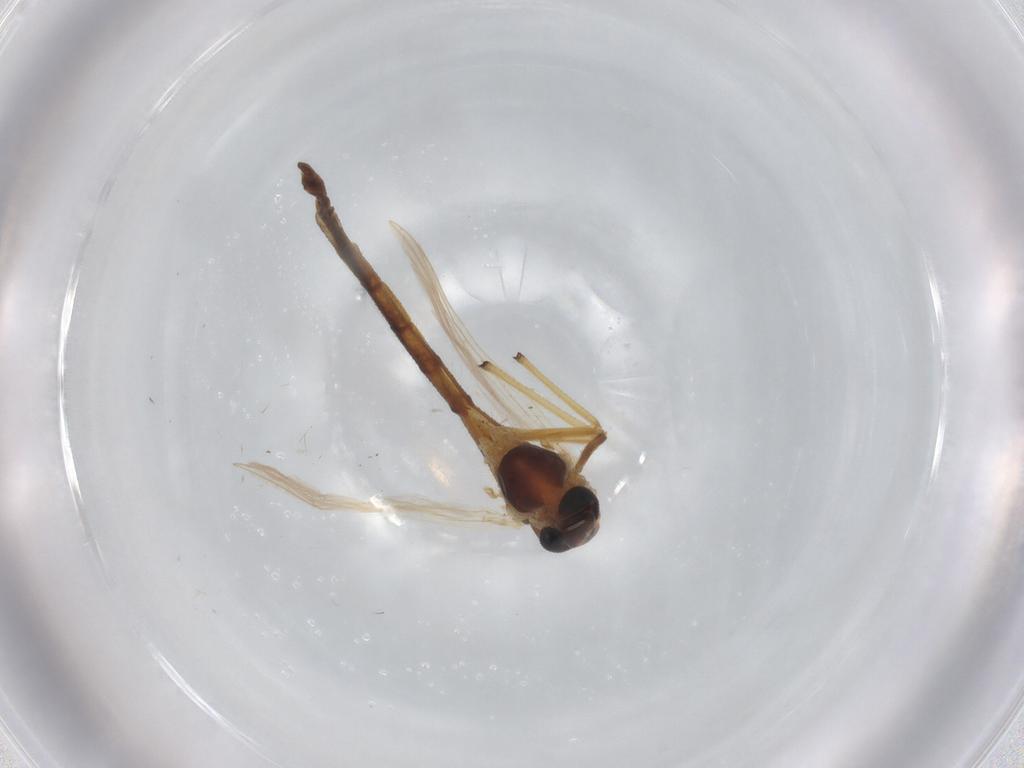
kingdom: Animalia
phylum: Arthropoda
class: Insecta
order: Diptera
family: Chironomidae
